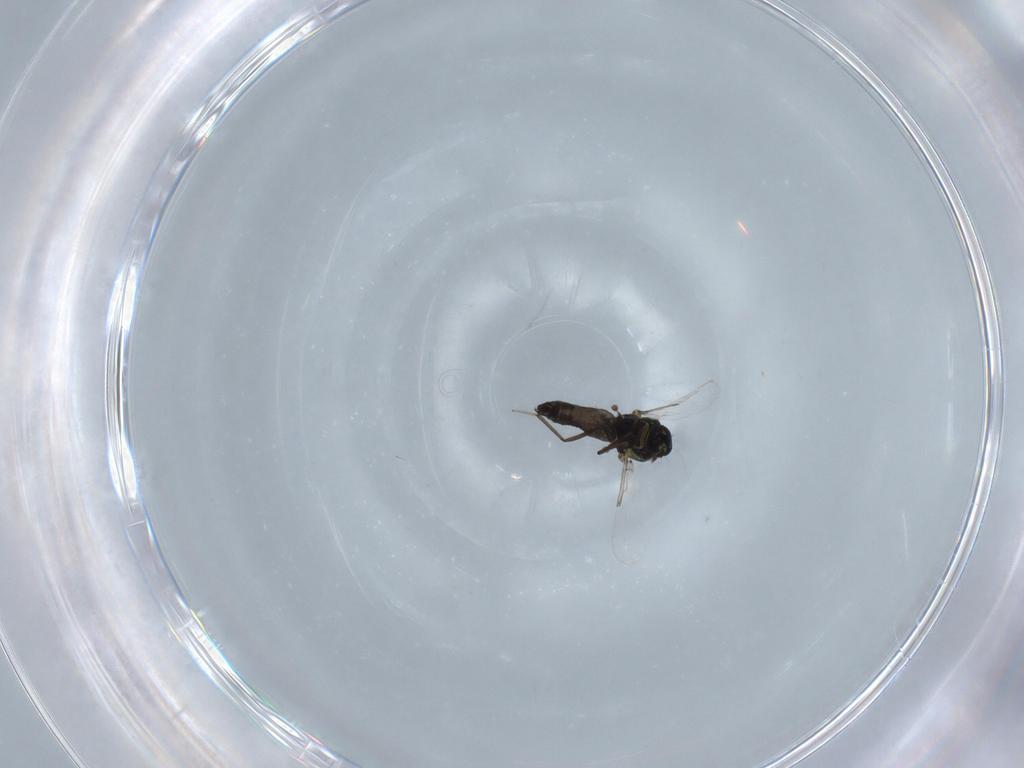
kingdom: Animalia
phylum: Arthropoda
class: Insecta
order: Diptera
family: Ceratopogonidae
